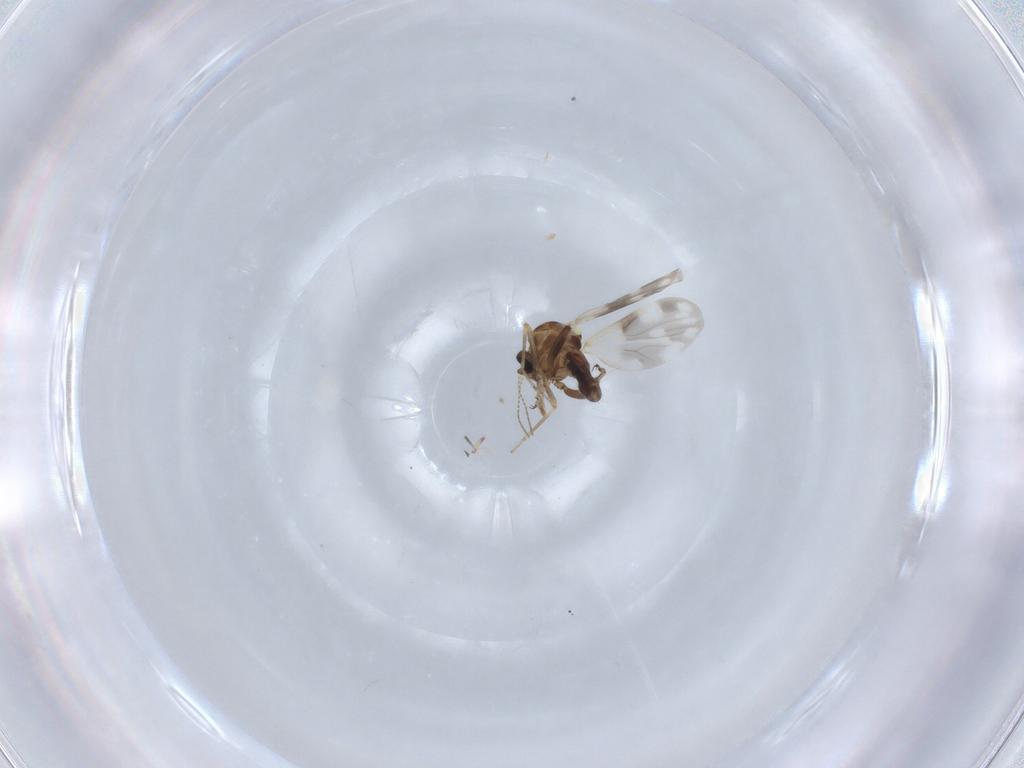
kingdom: Animalia
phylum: Arthropoda
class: Insecta
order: Diptera
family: Ceratopogonidae
